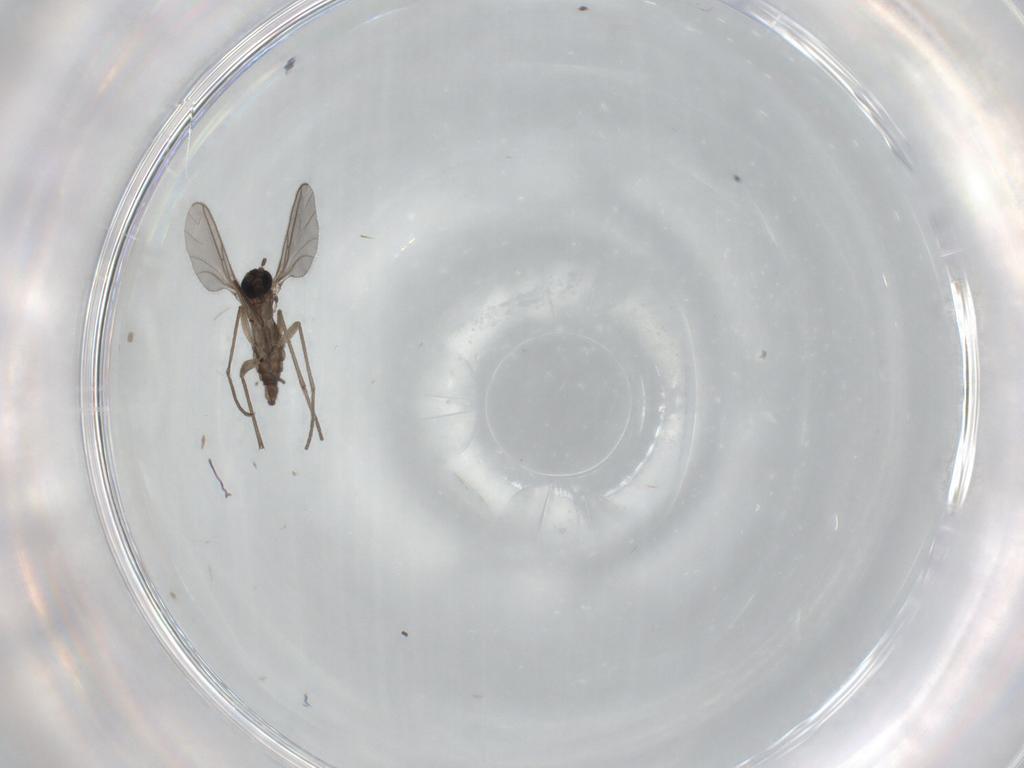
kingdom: Animalia
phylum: Arthropoda
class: Insecta
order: Diptera
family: Sciaridae
